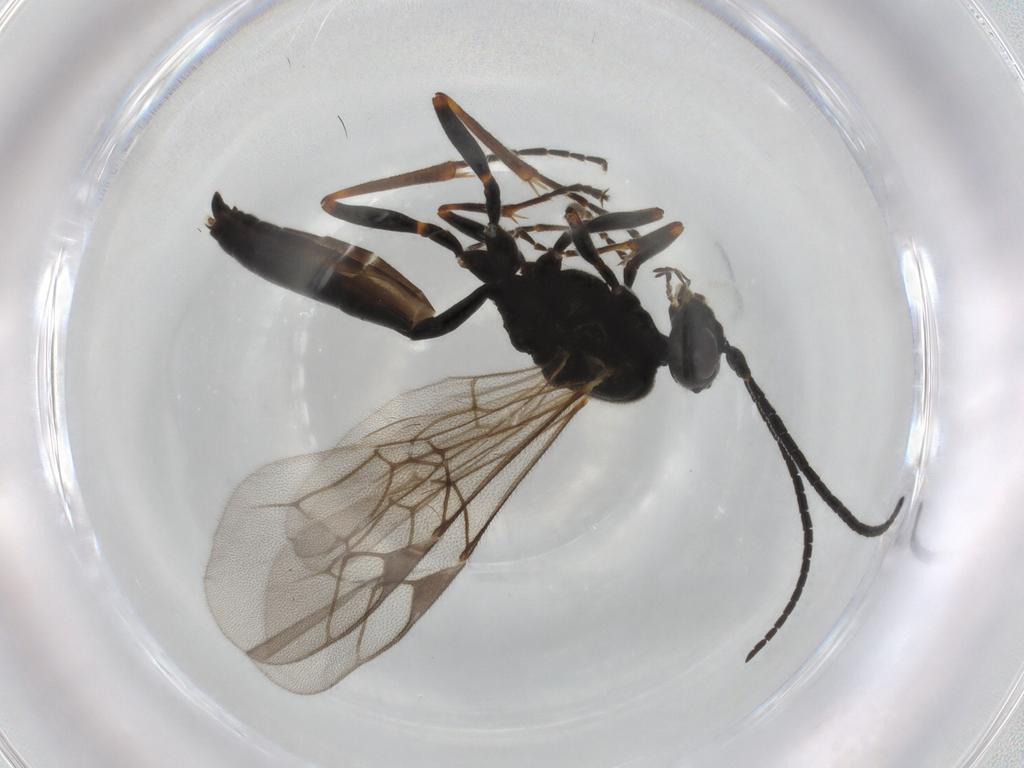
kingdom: Animalia
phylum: Arthropoda
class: Insecta
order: Hymenoptera
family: Ichneumonidae
